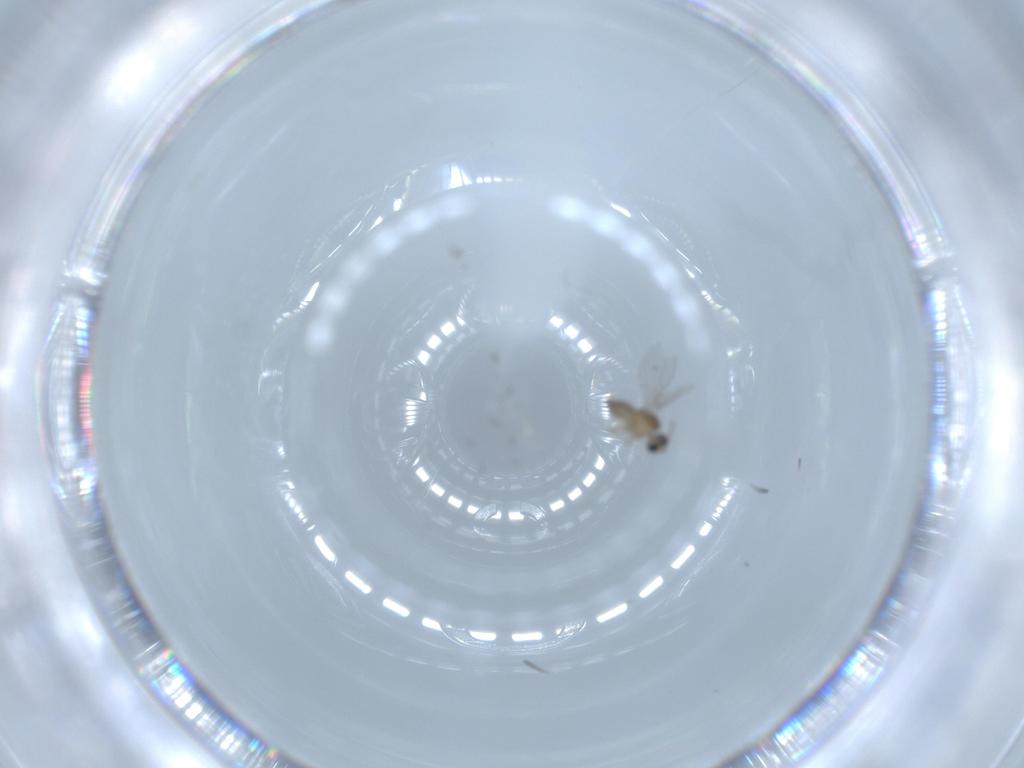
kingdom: Animalia
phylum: Arthropoda
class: Insecta
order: Diptera
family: Cecidomyiidae
